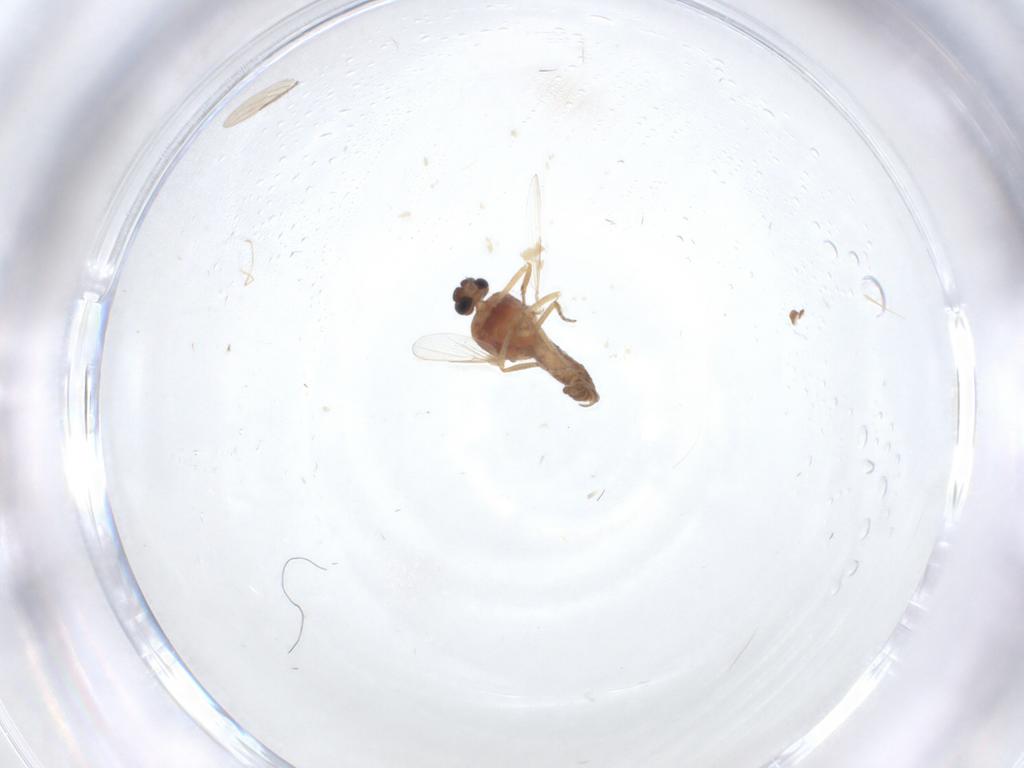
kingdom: Animalia
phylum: Arthropoda
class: Insecta
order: Diptera
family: Ceratopogonidae
